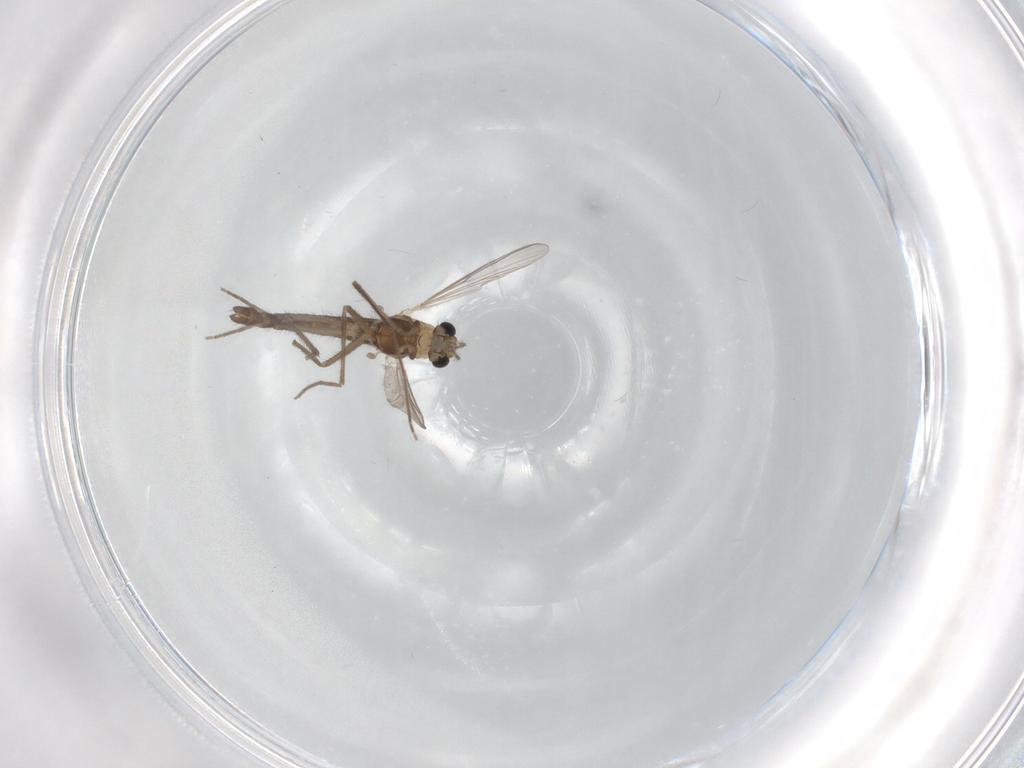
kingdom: Animalia
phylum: Arthropoda
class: Insecta
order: Diptera
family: Chironomidae
